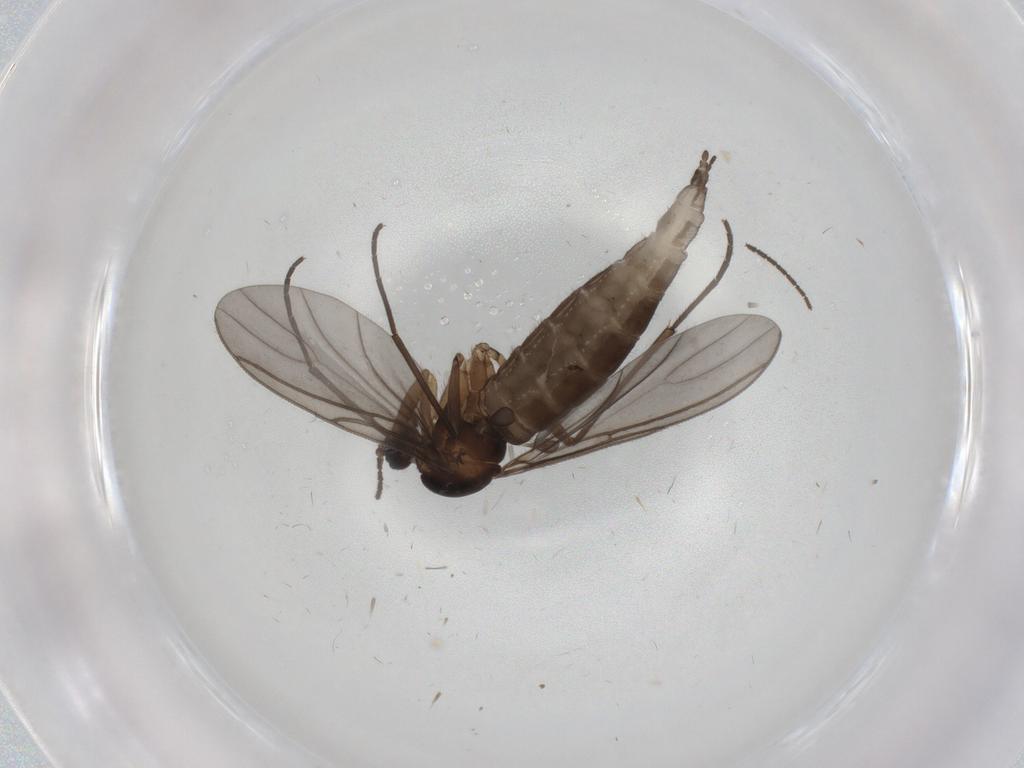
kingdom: Animalia
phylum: Arthropoda
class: Insecta
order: Diptera
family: Cecidomyiidae
